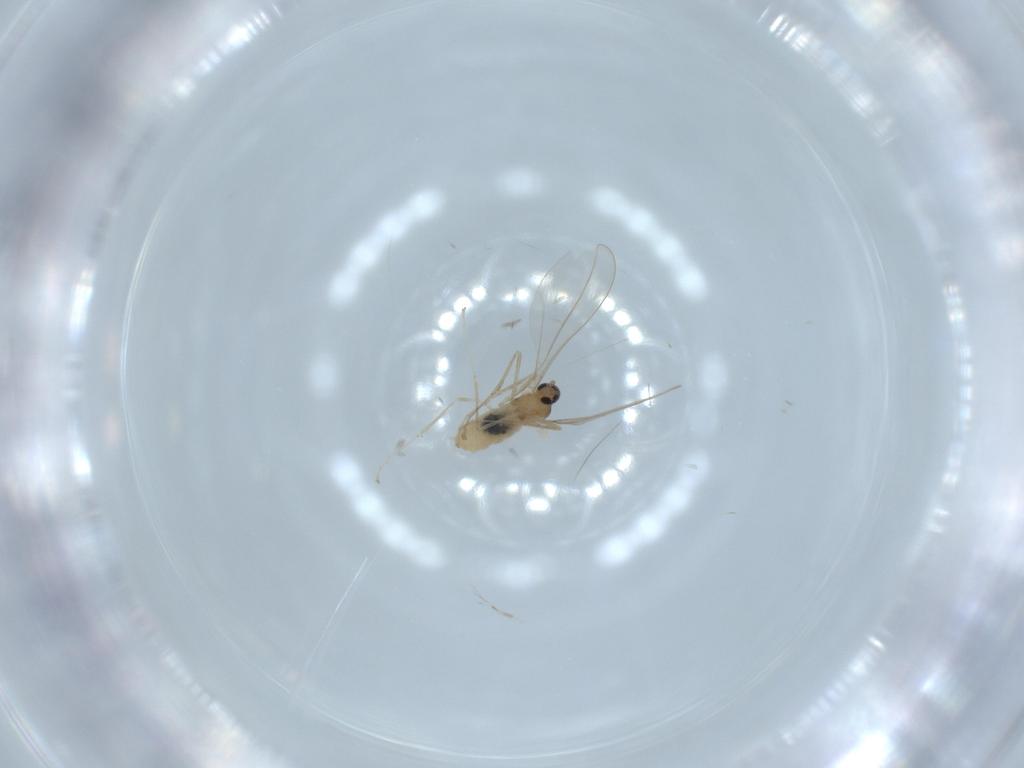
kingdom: Animalia
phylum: Arthropoda
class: Insecta
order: Diptera
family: Cecidomyiidae
